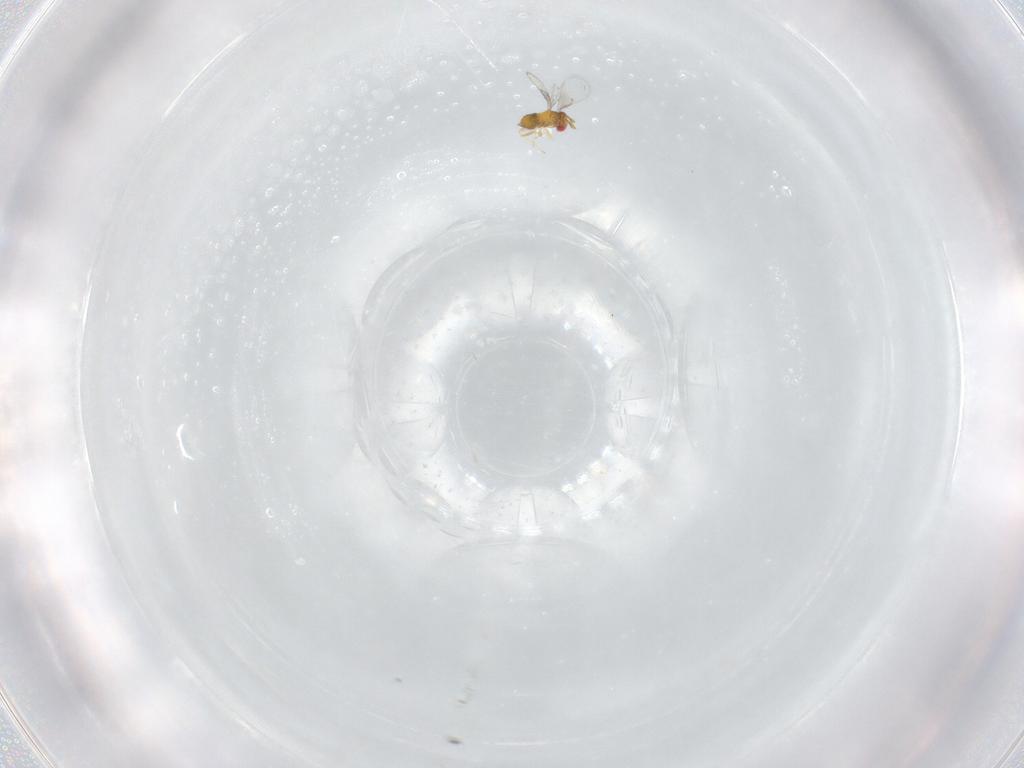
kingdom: Animalia
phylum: Arthropoda
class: Insecta
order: Hymenoptera
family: Trichogrammatidae
